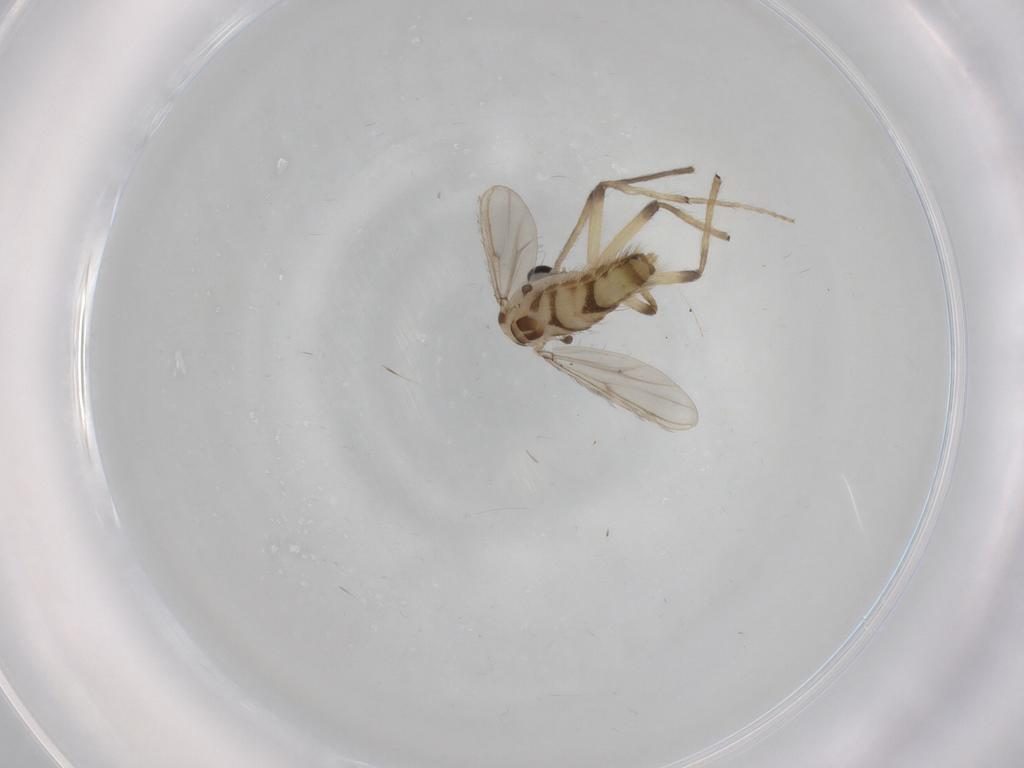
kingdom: Animalia
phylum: Arthropoda
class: Insecta
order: Diptera
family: Chironomidae
